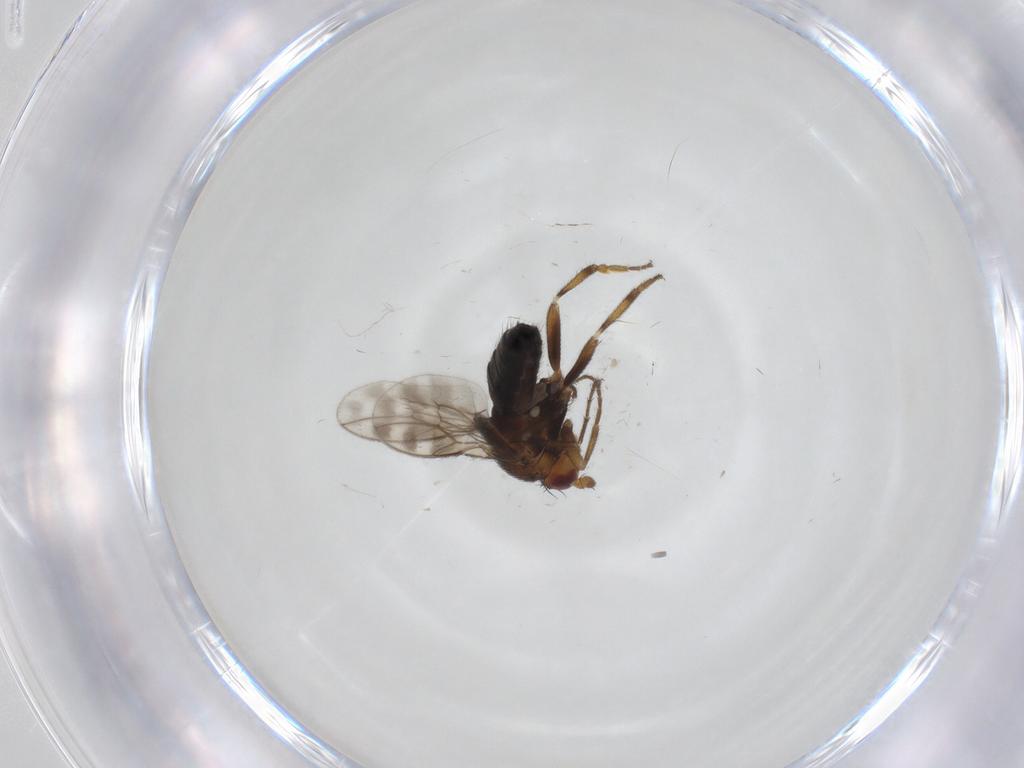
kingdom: Animalia
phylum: Arthropoda
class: Insecta
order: Diptera
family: Sphaeroceridae
